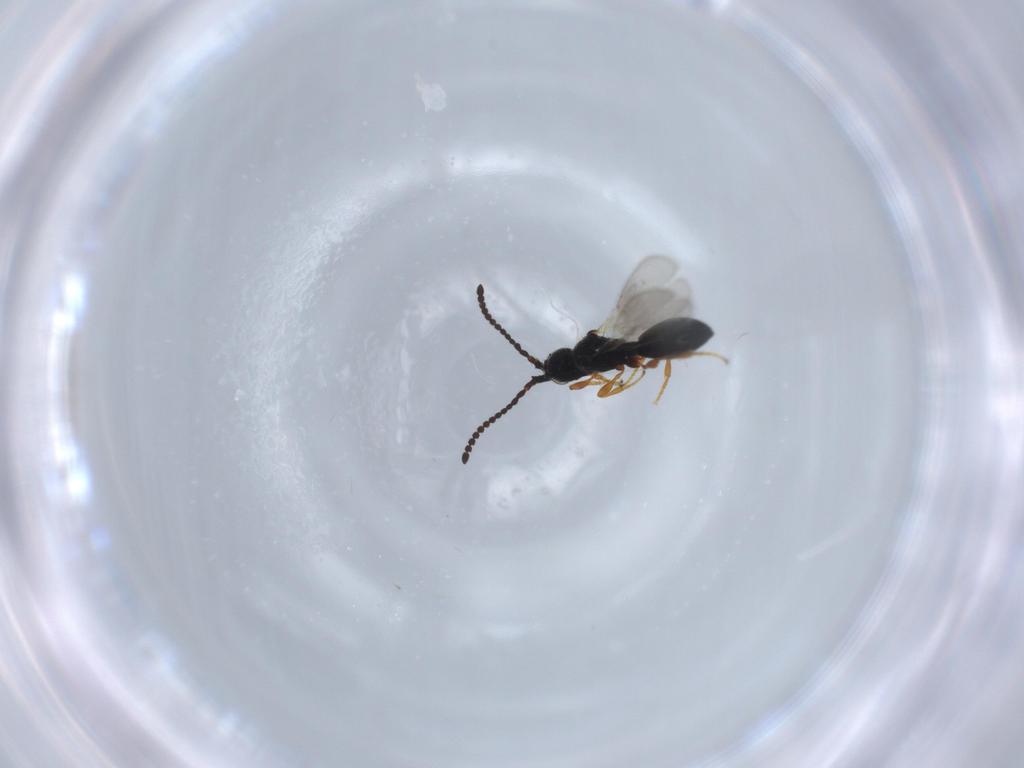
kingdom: Animalia
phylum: Arthropoda
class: Insecta
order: Hymenoptera
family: Diapriidae
